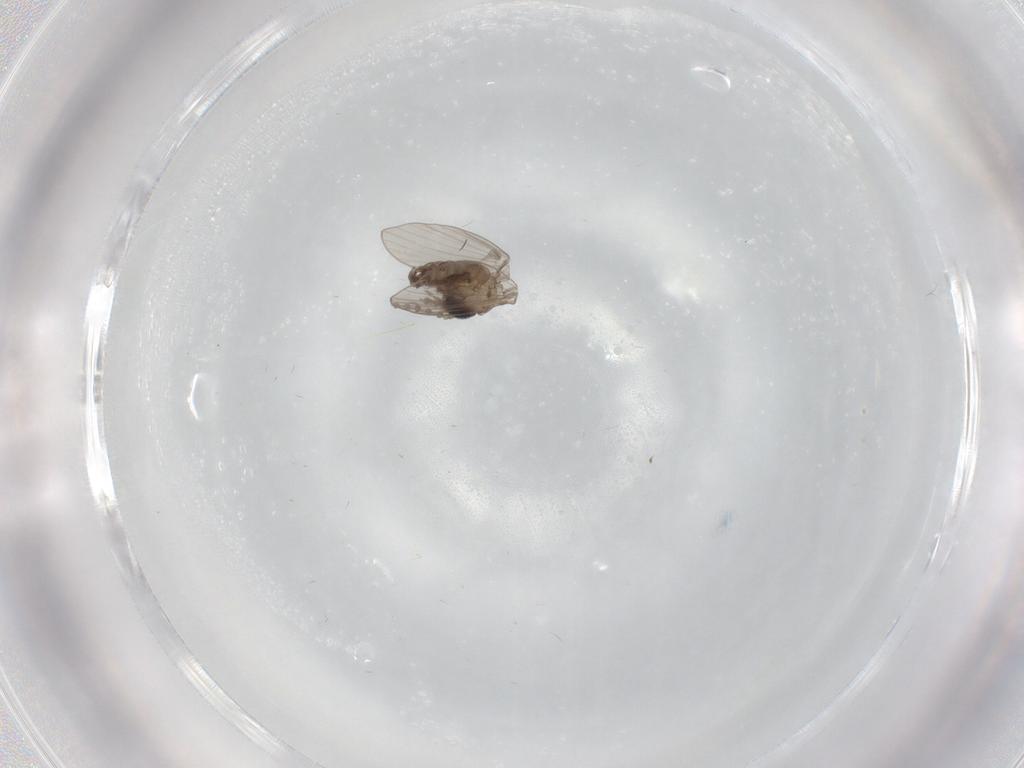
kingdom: Animalia
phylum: Arthropoda
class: Insecta
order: Diptera
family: Psychodidae
